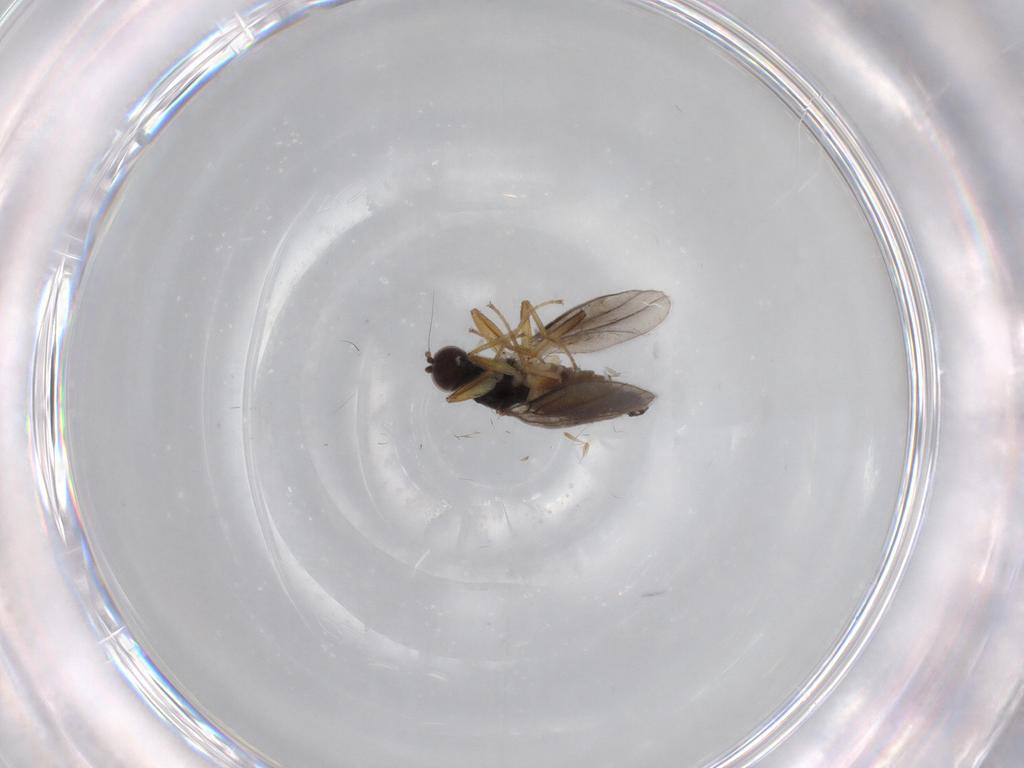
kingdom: Animalia
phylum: Arthropoda
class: Insecta
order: Diptera
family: Hybotidae
